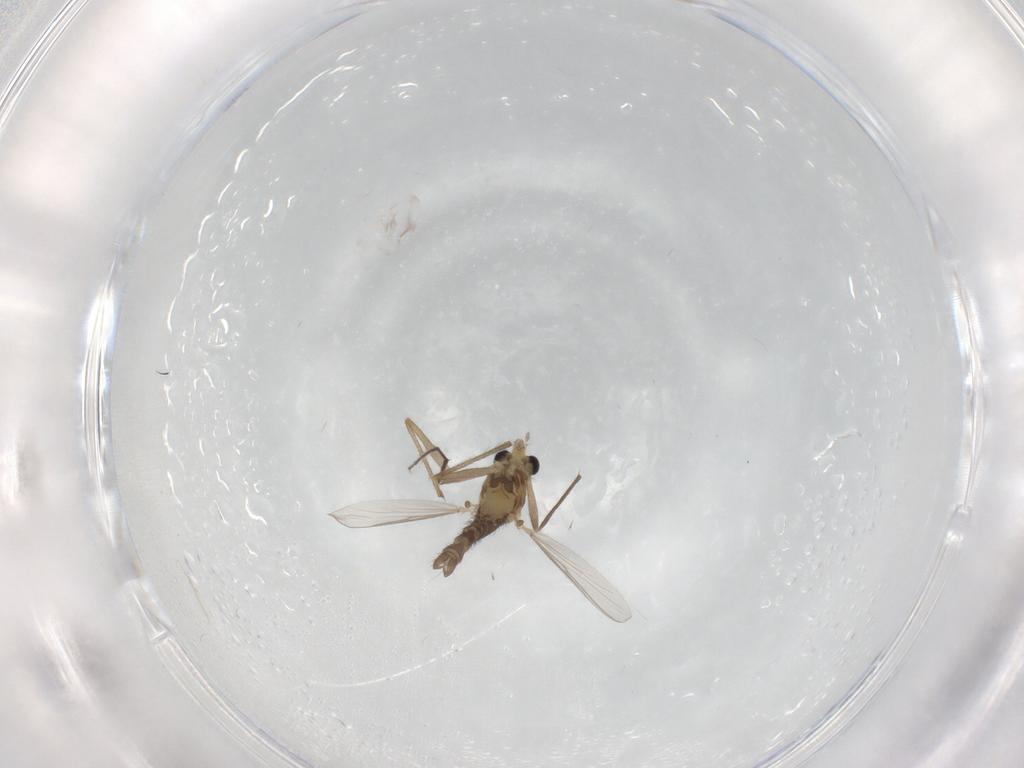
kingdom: Animalia
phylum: Arthropoda
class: Insecta
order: Diptera
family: Chironomidae
